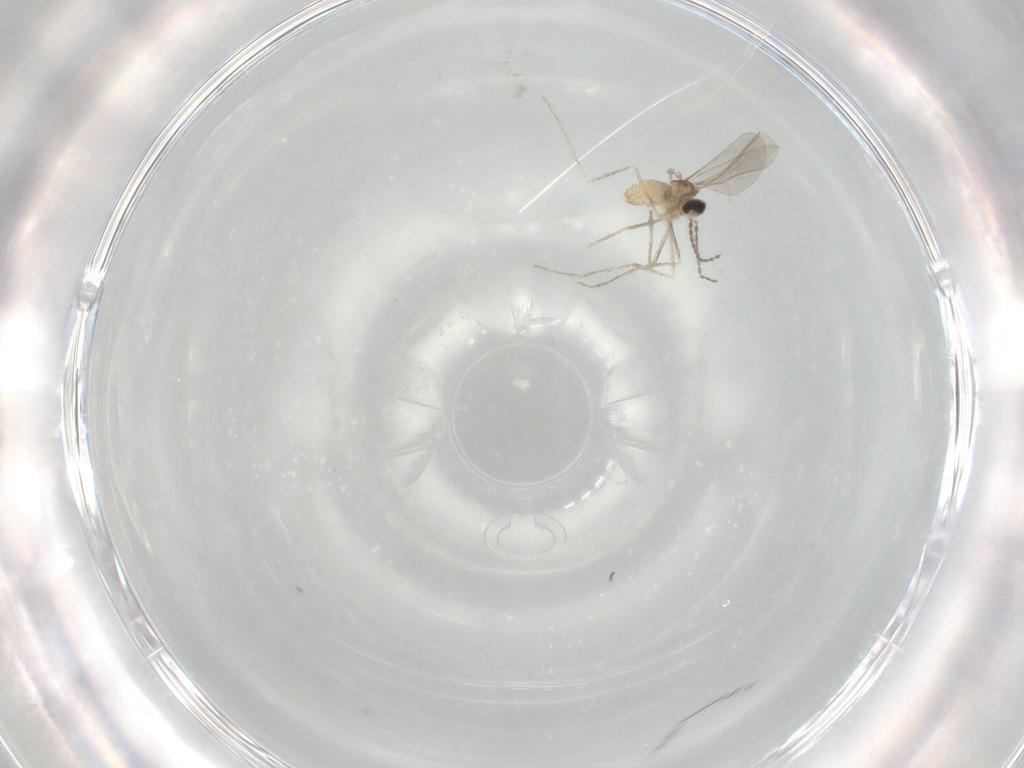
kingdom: Animalia
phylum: Arthropoda
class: Insecta
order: Diptera
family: Cecidomyiidae
